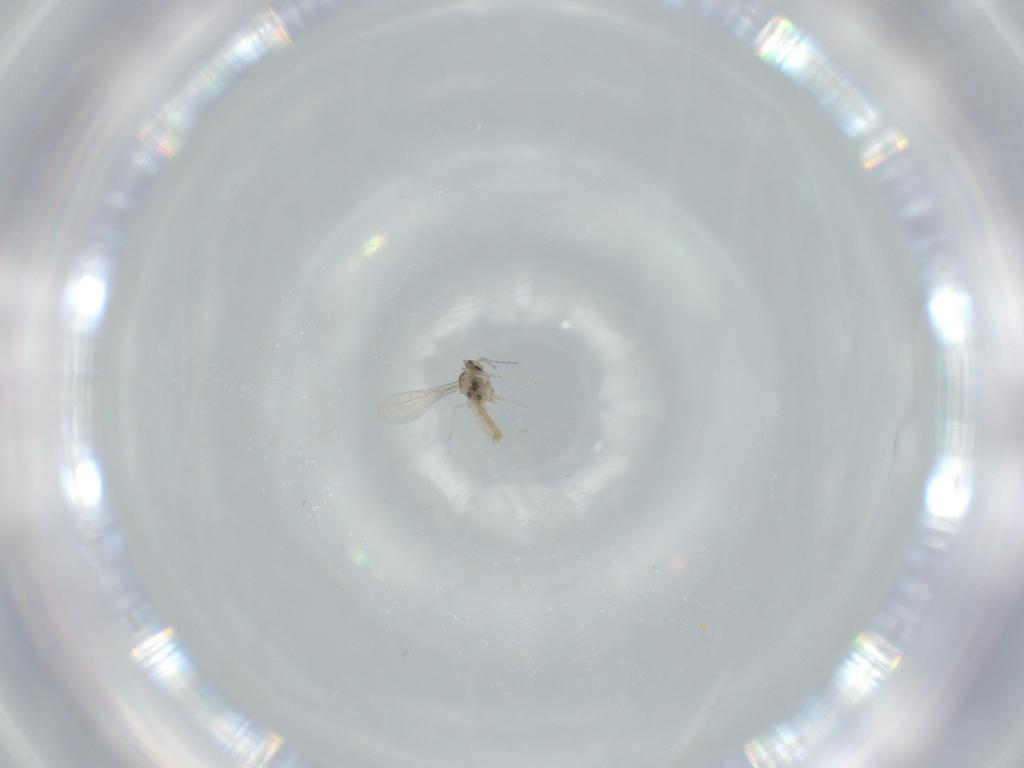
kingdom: Animalia
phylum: Arthropoda
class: Insecta
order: Diptera
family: Cecidomyiidae
